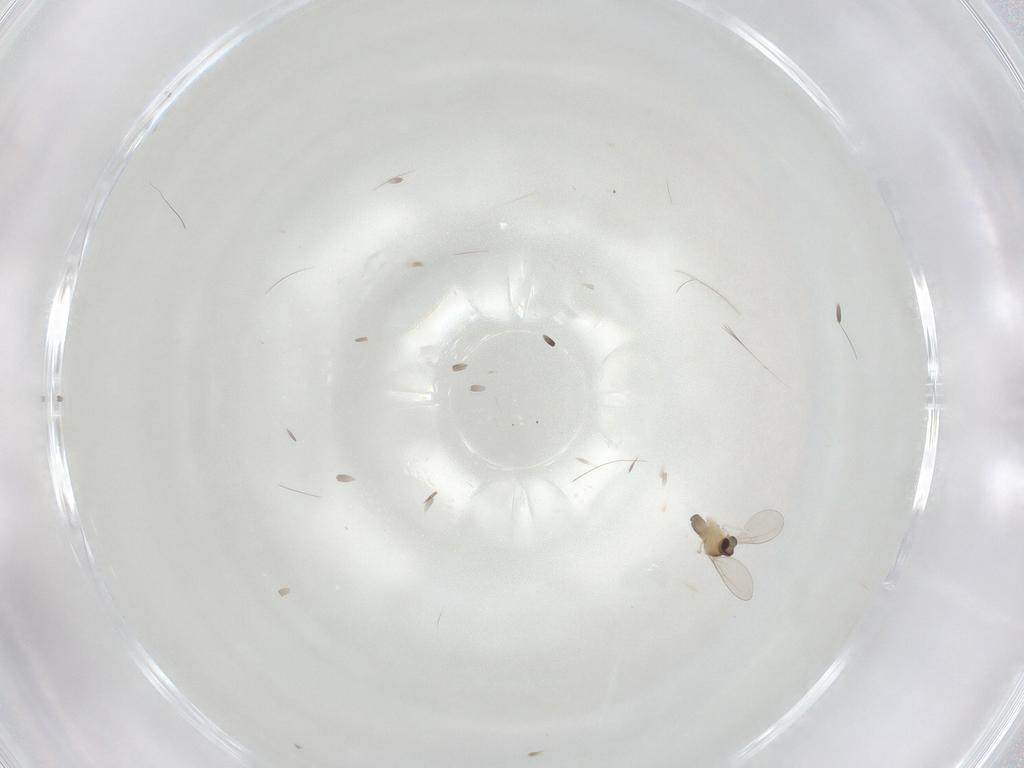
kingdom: Animalia
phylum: Arthropoda
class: Insecta
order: Diptera
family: Cecidomyiidae
